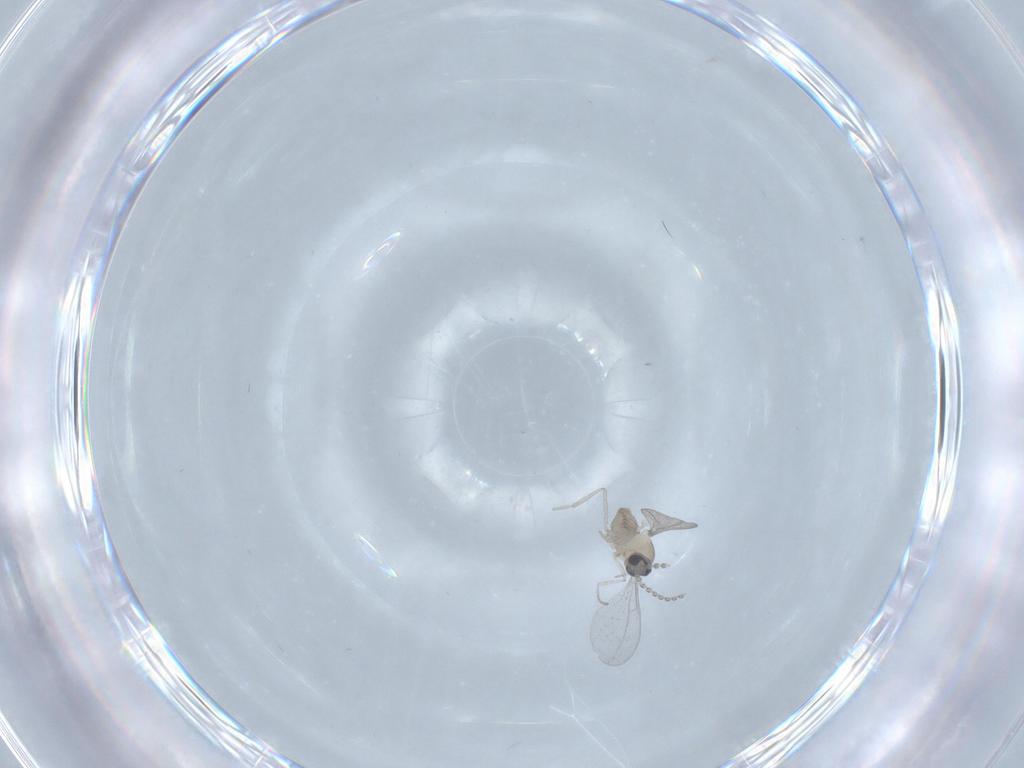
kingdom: Animalia
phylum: Arthropoda
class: Insecta
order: Diptera
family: Cecidomyiidae
